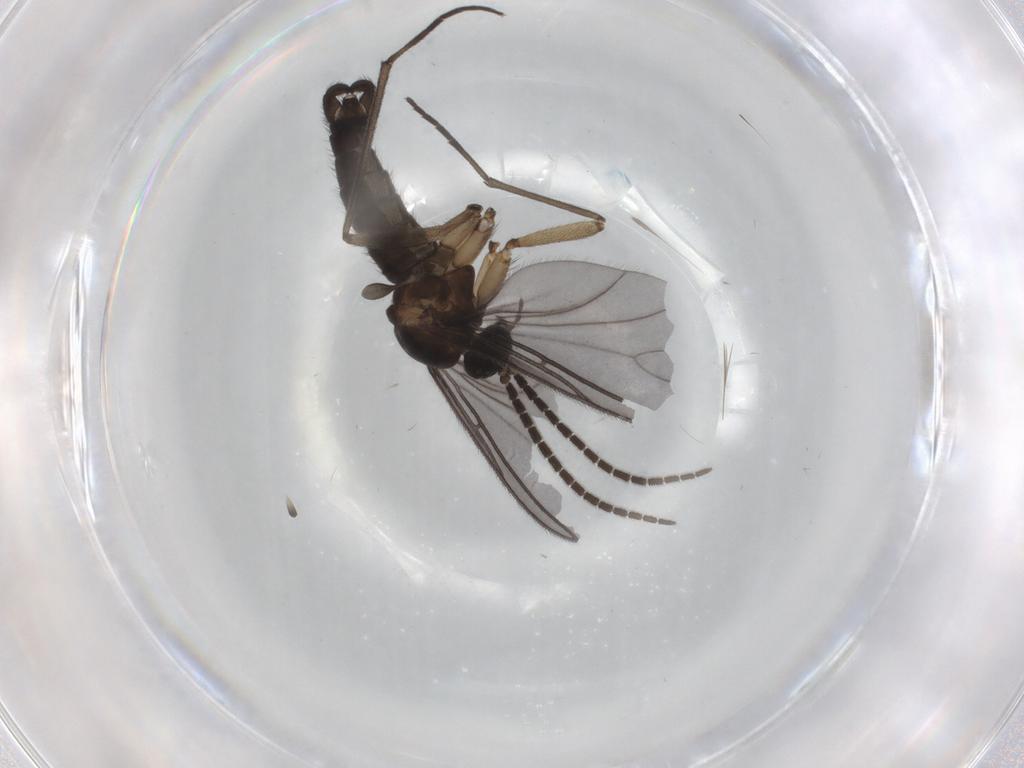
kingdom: Animalia
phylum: Arthropoda
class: Insecta
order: Diptera
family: Sciaridae
